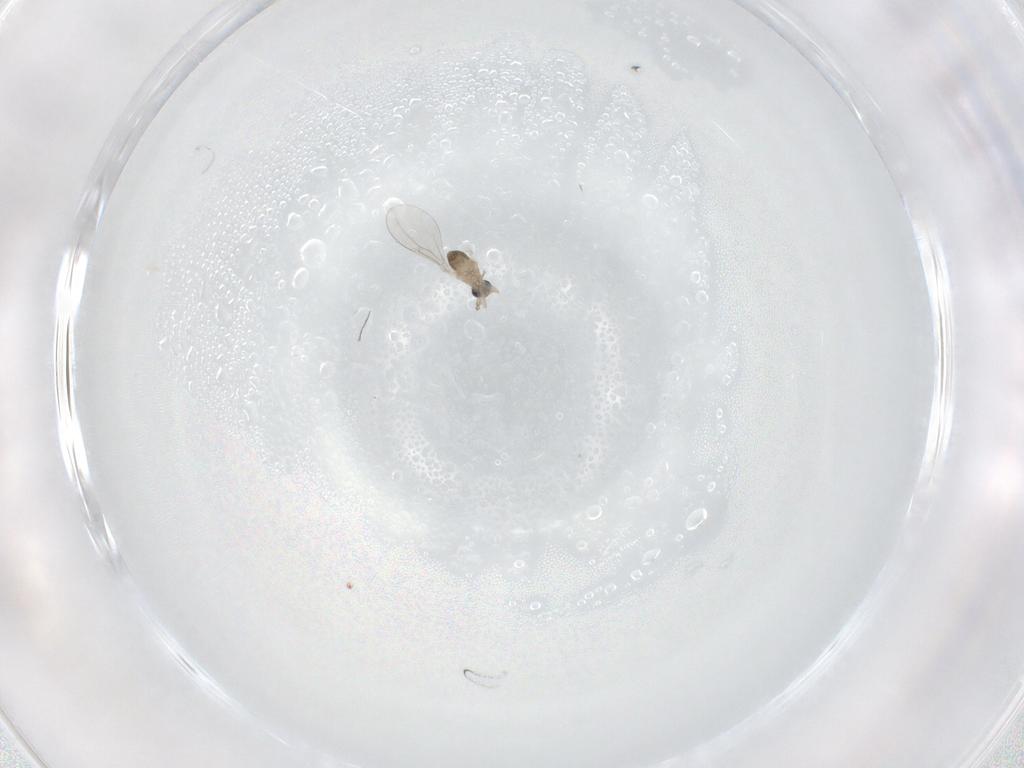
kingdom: Animalia
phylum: Arthropoda
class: Insecta
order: Diptera
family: Cecidomyiidae
